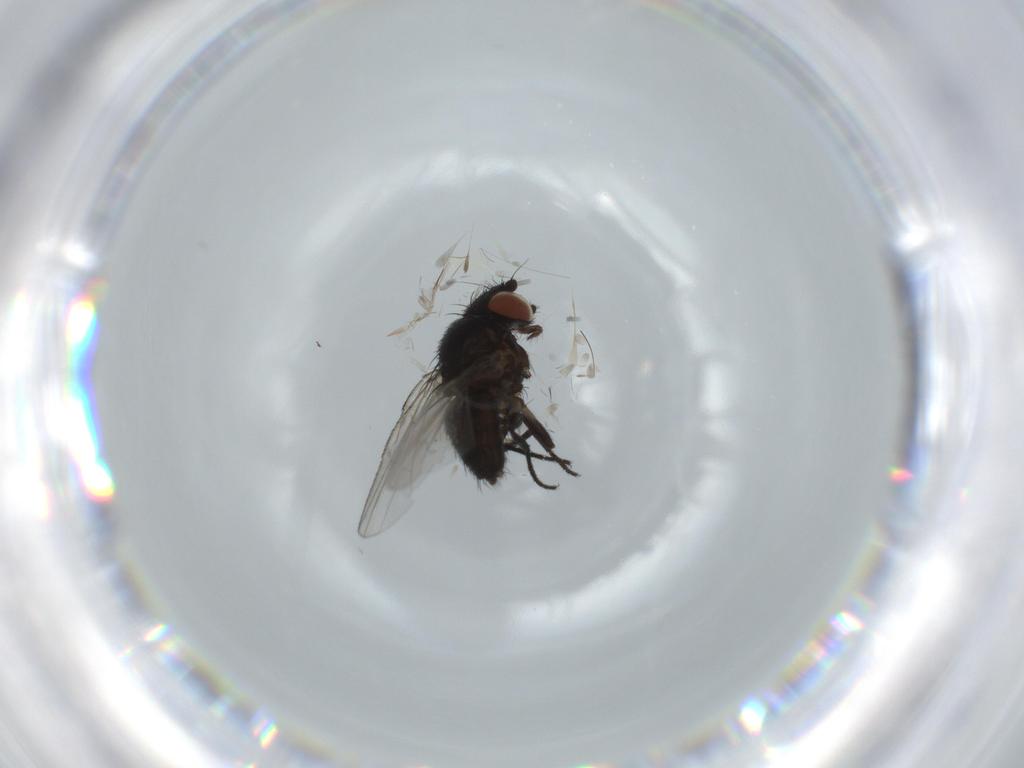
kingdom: Animalia
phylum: Arthropoda
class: Insecta
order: Diptera
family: Milichiidae
